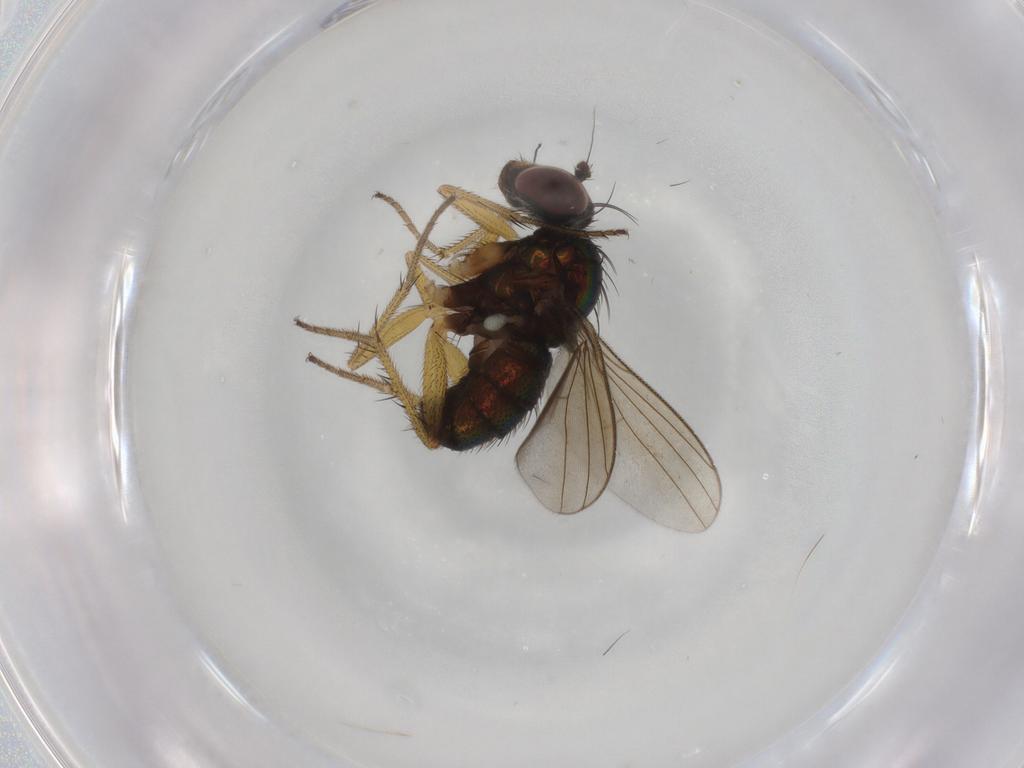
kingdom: Animalia
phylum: Arthropoda
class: Insecta
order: Diptera
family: Dolichopodidae
